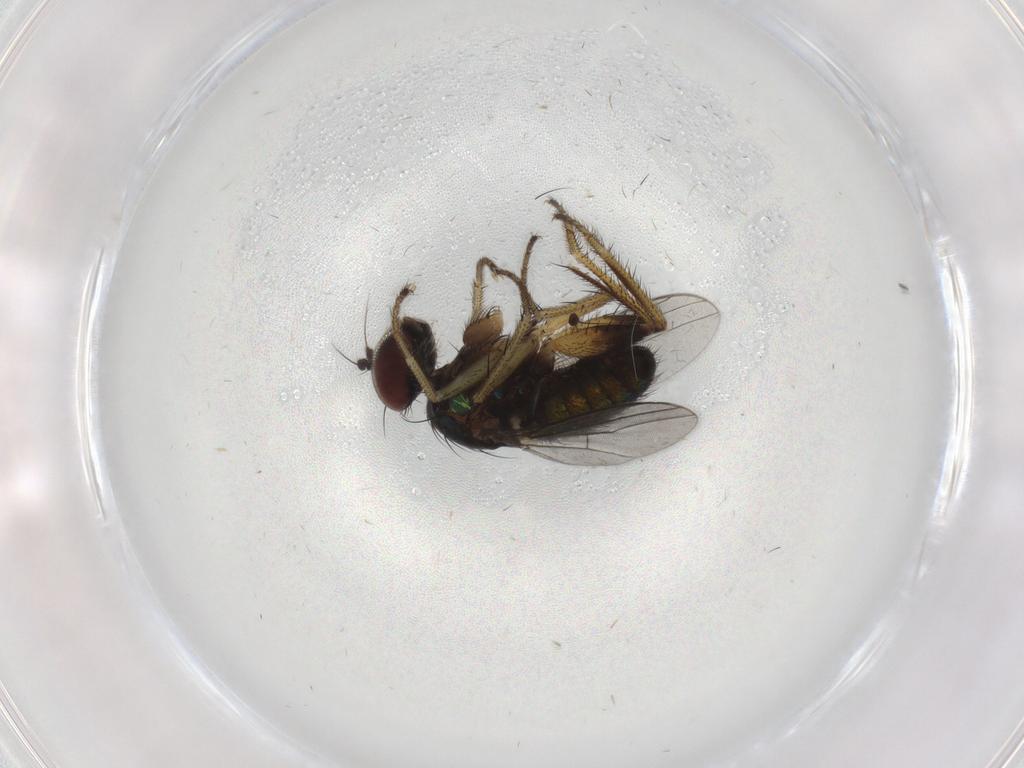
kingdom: Animalia
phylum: Arthropoda
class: Insecta
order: Diptera
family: Dolichopodidae
